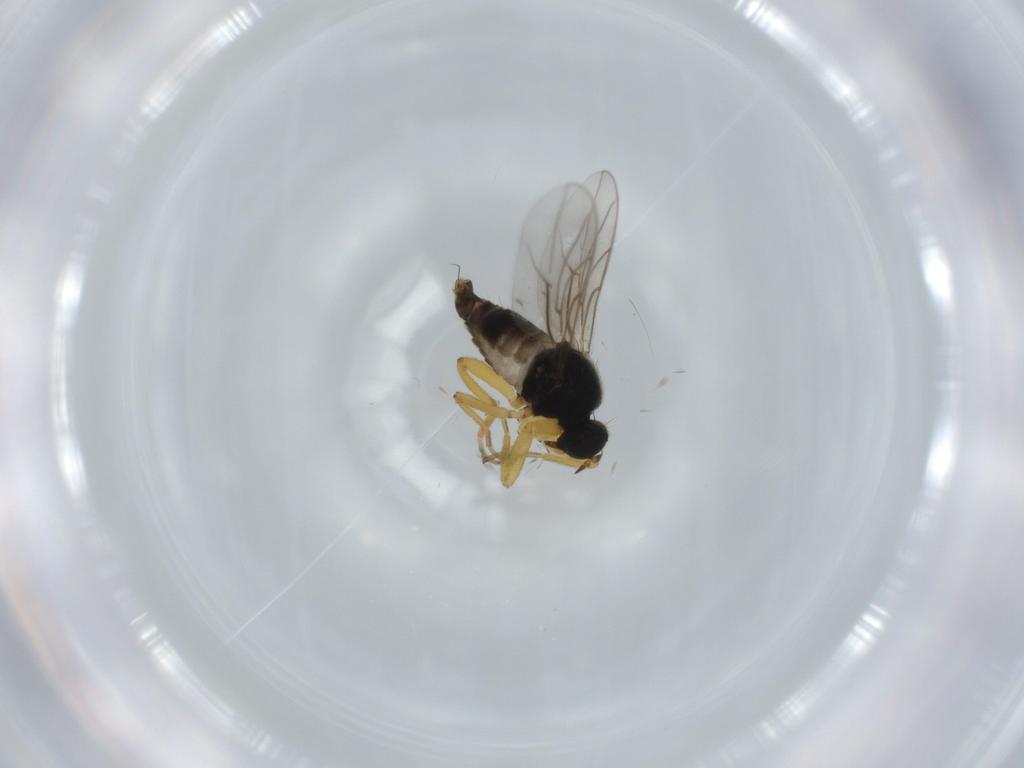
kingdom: Animalia
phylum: Arthropoda
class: Insecta
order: Diptera
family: Hybotidae
